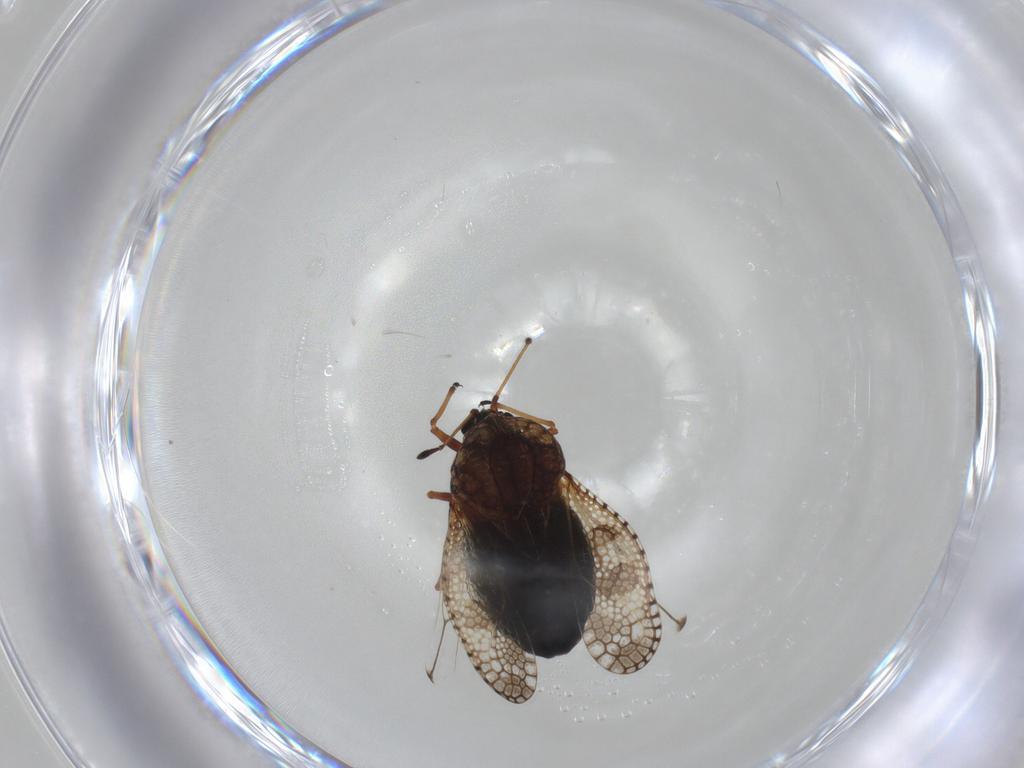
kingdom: Animalia
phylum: Arthropoda
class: Insecta
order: Hemiptera
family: Tingidae
